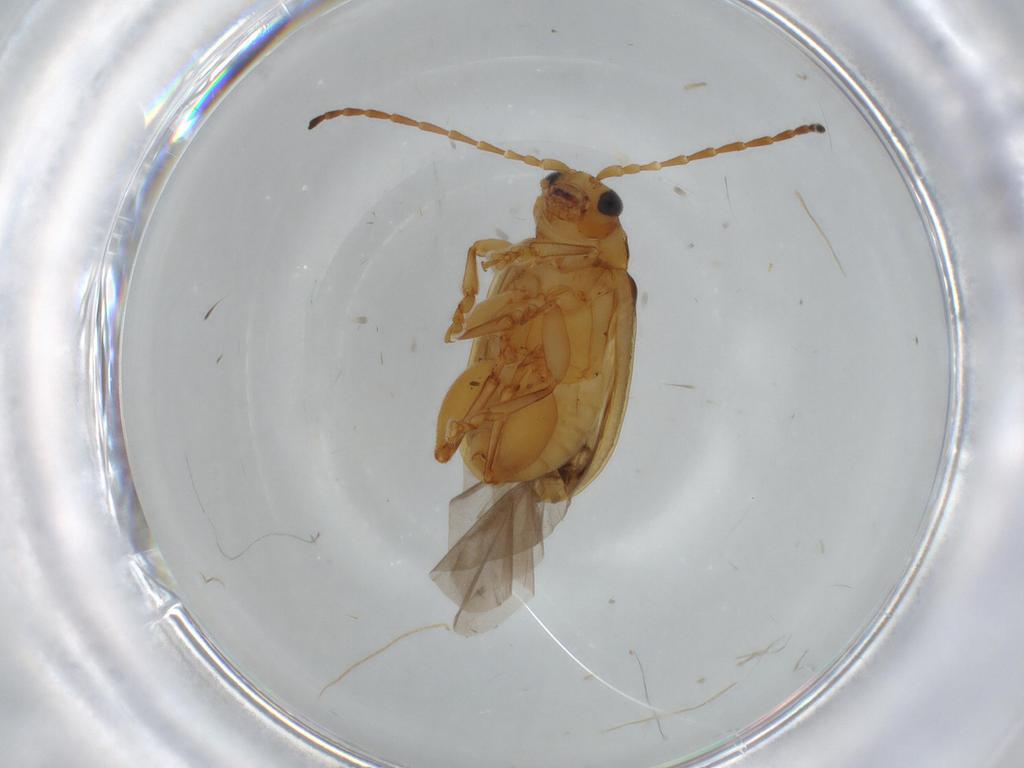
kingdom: Animalia
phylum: Arthropoda
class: Insecta
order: Coleoptera
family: Chrysomelidae
